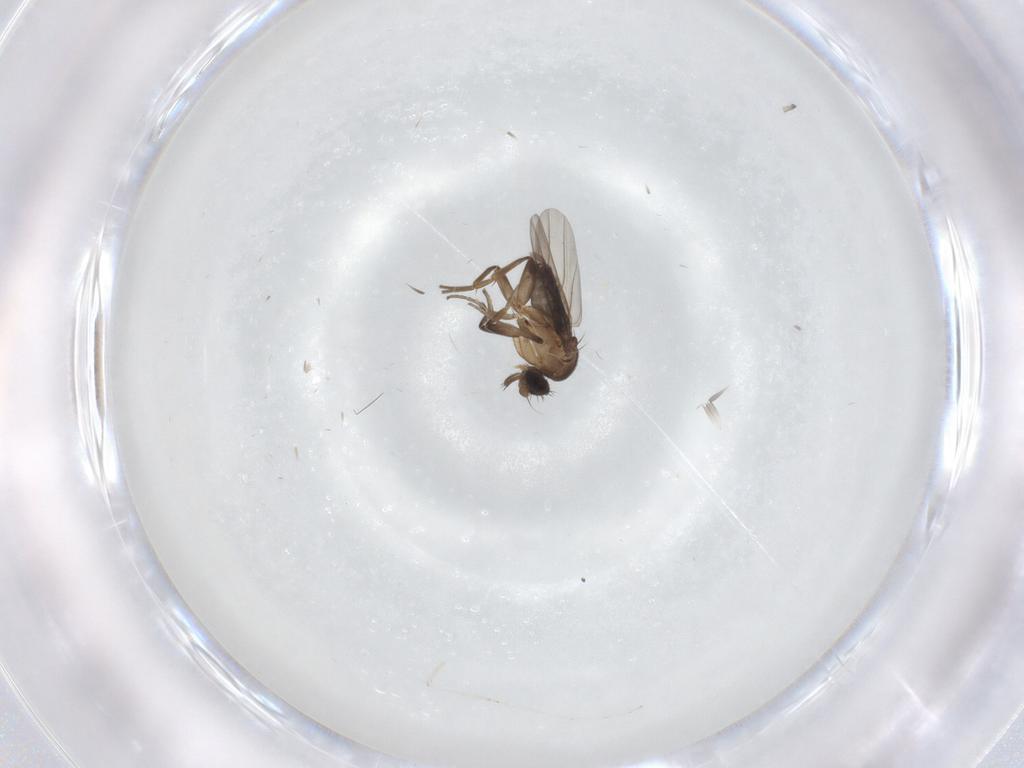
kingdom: Animalia
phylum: Arthropoda
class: Insecta
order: Diptera
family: Phoridae
